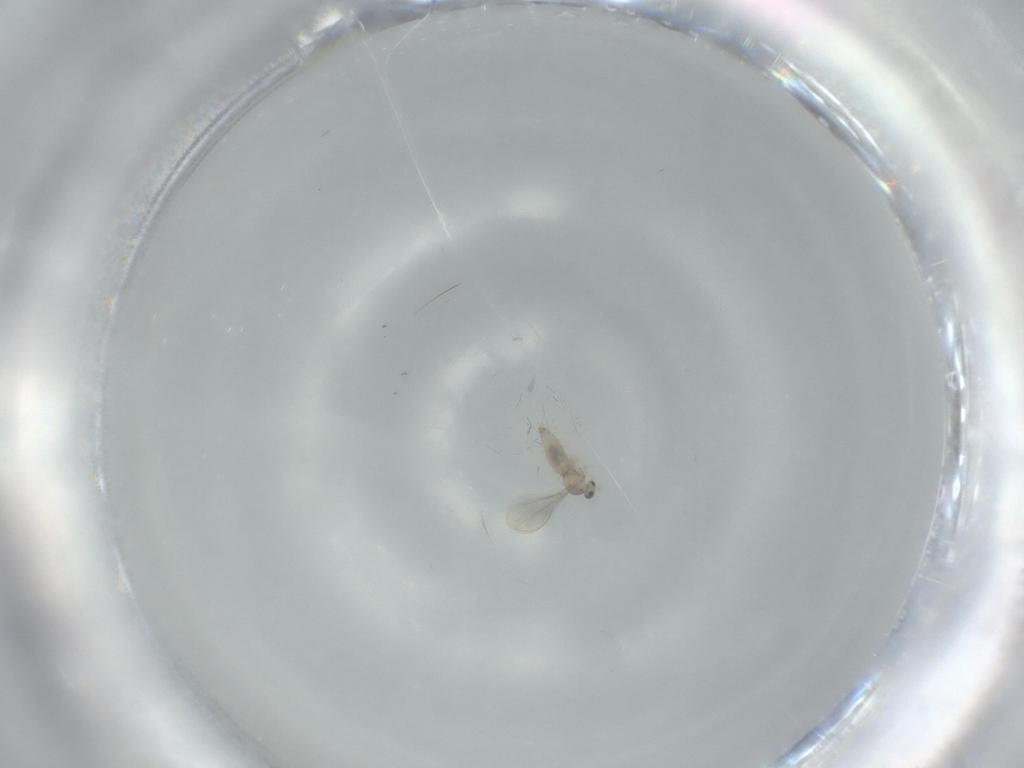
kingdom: Animalia
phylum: Arthropoda
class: Insecta
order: Diptera
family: Cecidomyiidae
